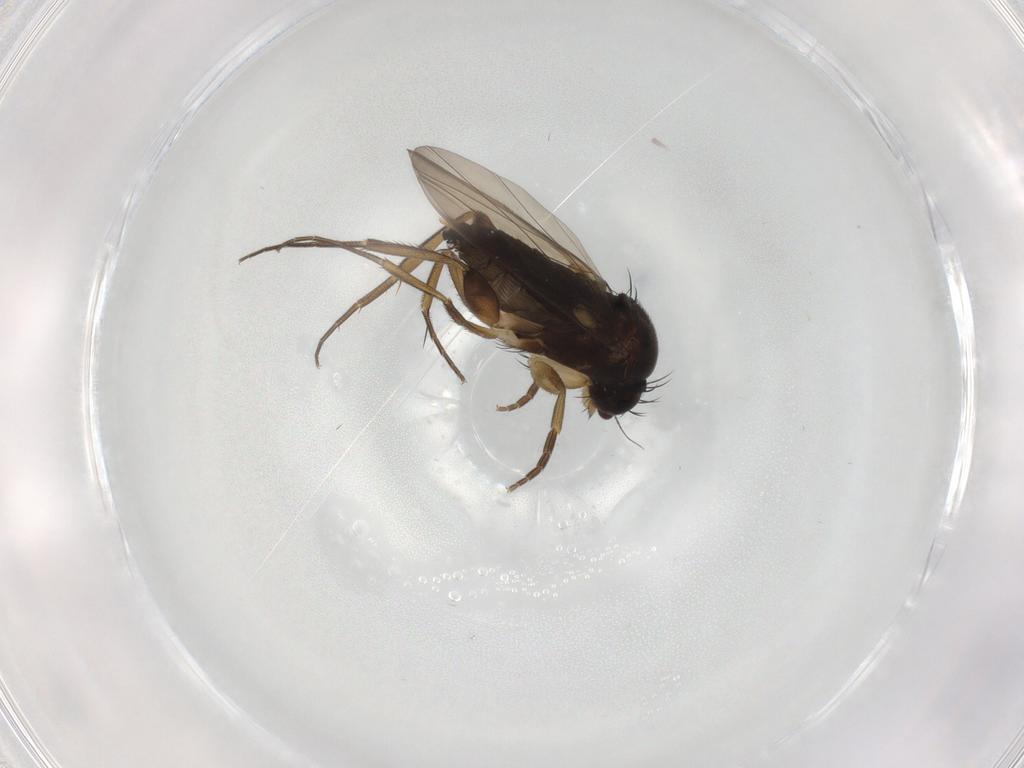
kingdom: Animalia
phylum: Arthropoda
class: Insecta
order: Diptera
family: Phoridae
